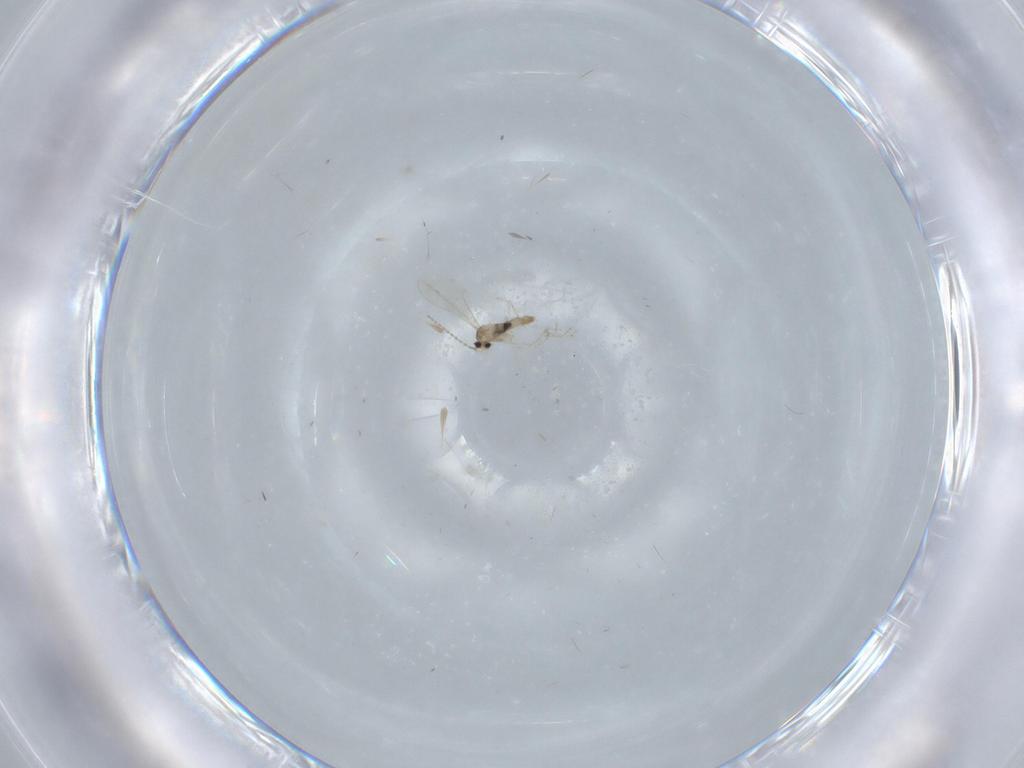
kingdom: Animalia
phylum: Arthropoda
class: Insecta
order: Diptera
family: Cecidomyiidae
